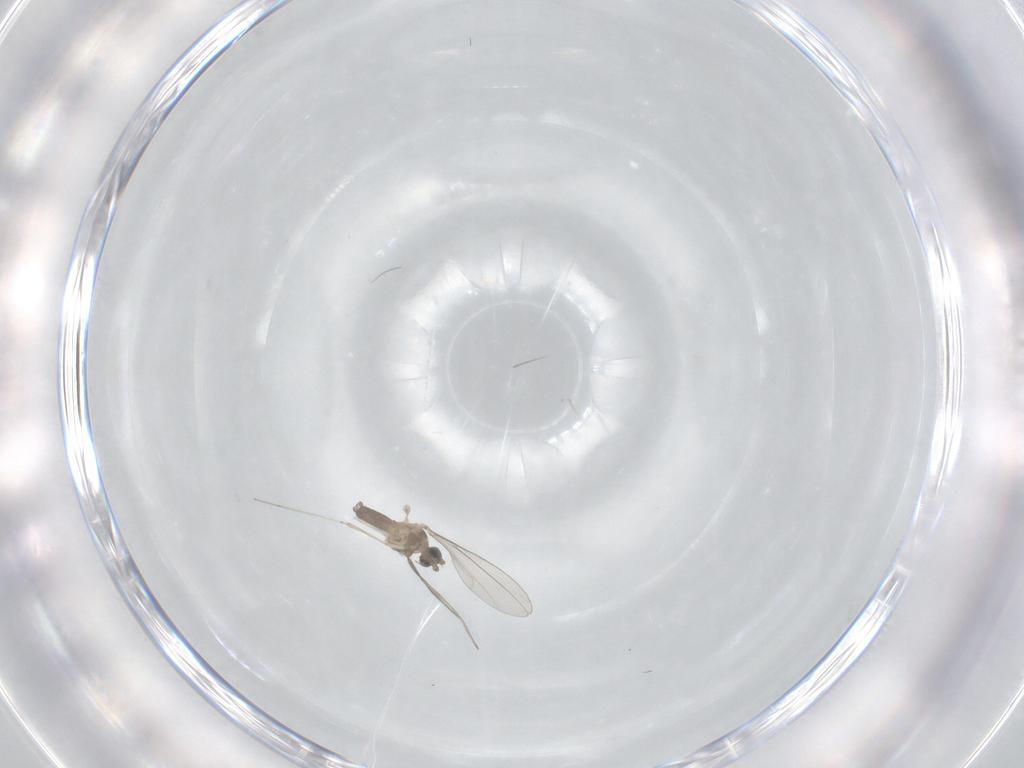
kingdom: Animalia
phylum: Arthropoda
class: Insecta
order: Diptera
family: Cecidomyiidae
